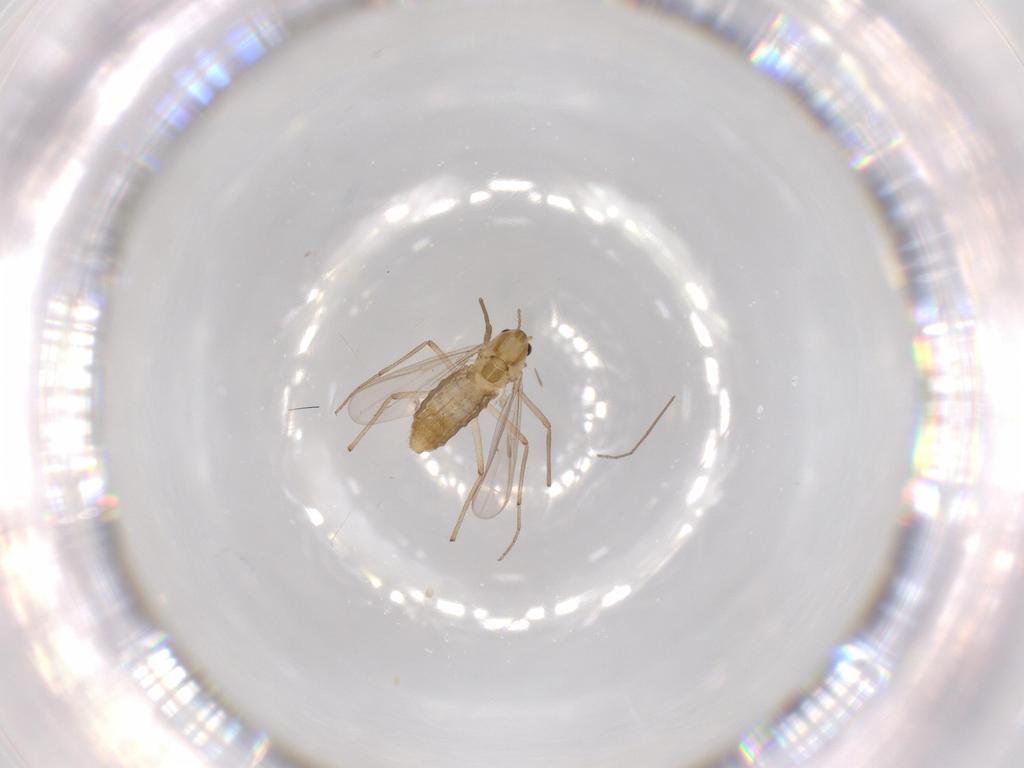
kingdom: Animalia
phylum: Arthropoda
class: Insecta
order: Diptera
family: Chironomidae
